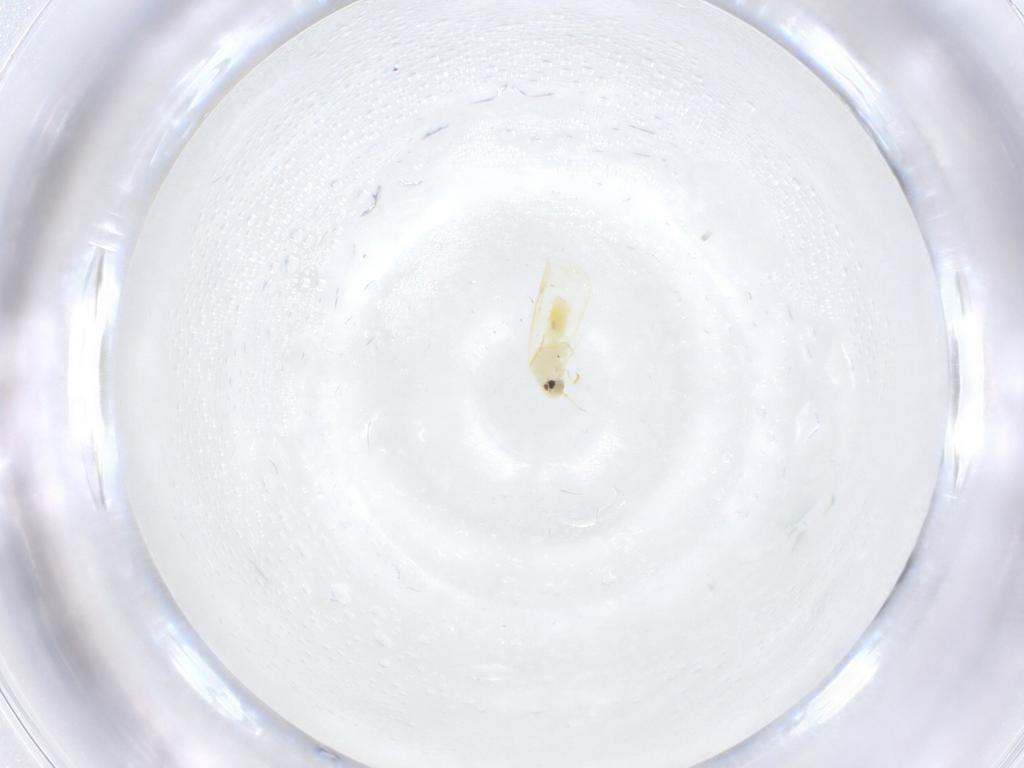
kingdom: Animalia
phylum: Arthropoda
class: Insecta
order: Hemiptera
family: Aleyrodidae
